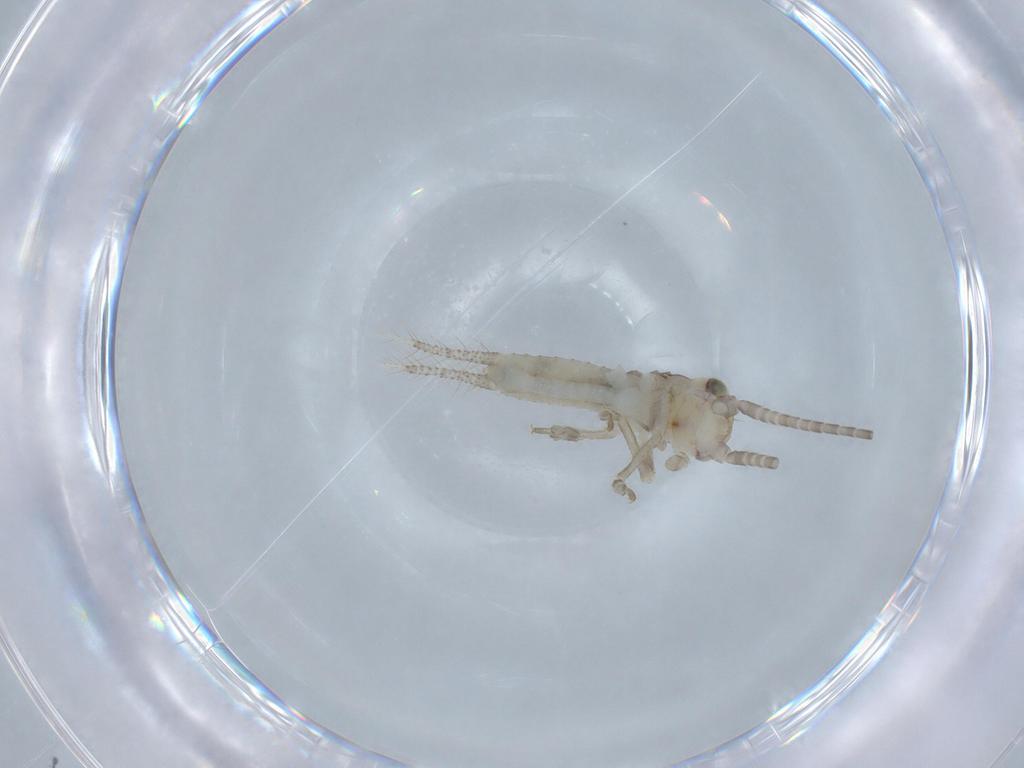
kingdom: Animalia
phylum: Arthropoda
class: Insecta
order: Orthoptera
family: Gryllidae
